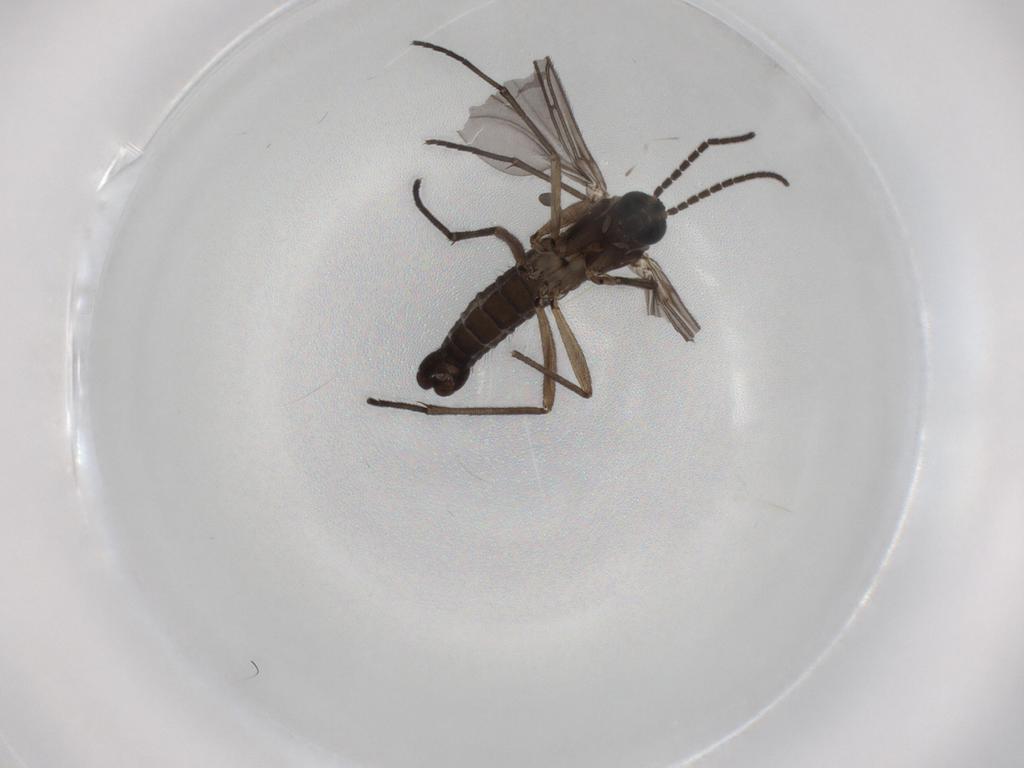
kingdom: Animalia
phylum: Arthropoda
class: Insecta
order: Diptera
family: Sciaridae
